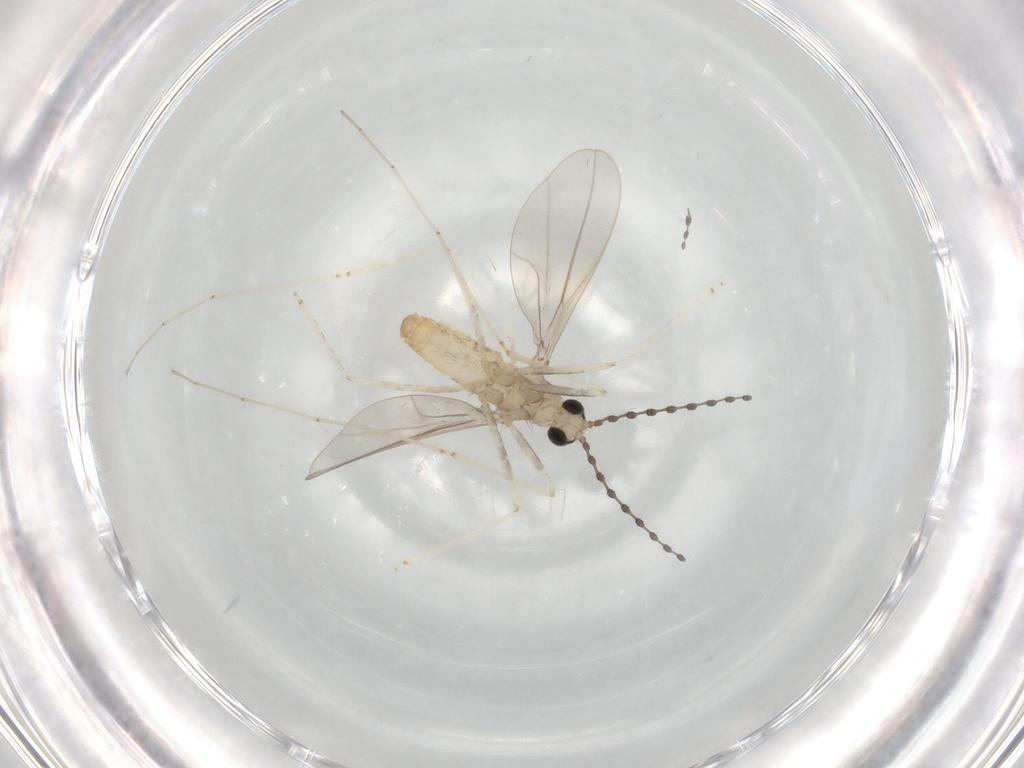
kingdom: Animalia
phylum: Arthropoda
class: Insecta
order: Diptera
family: Cecidomyiidae
